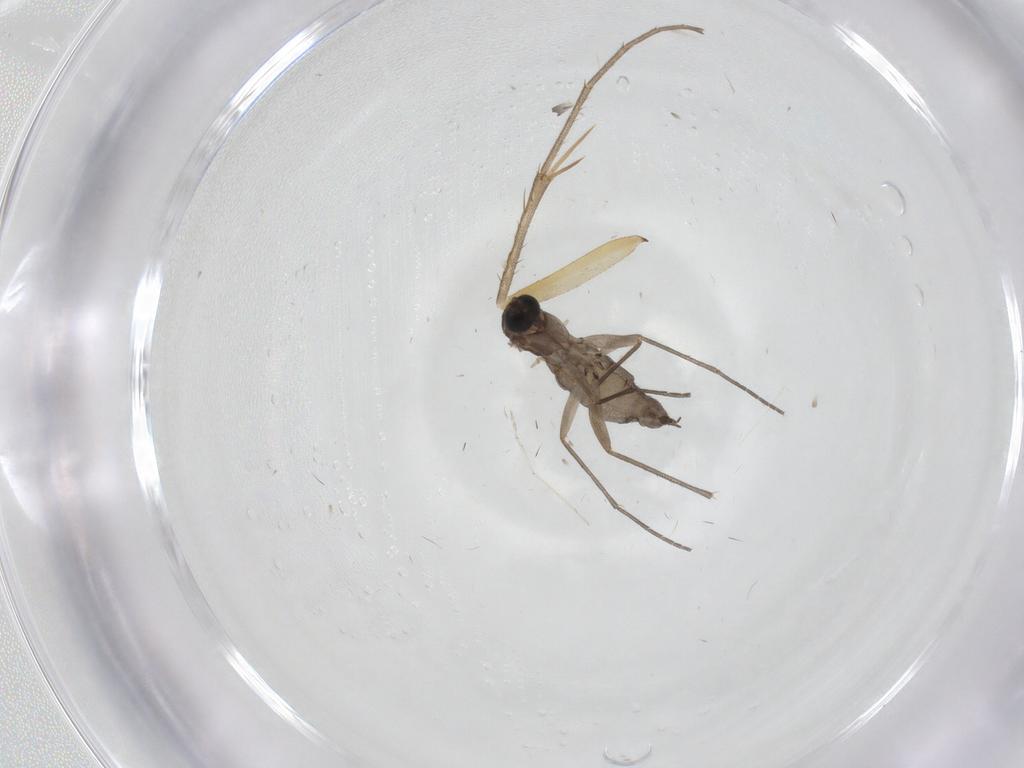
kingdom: Animalia
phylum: Arthropoda
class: Insecta
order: Diptera
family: Sciaridae
